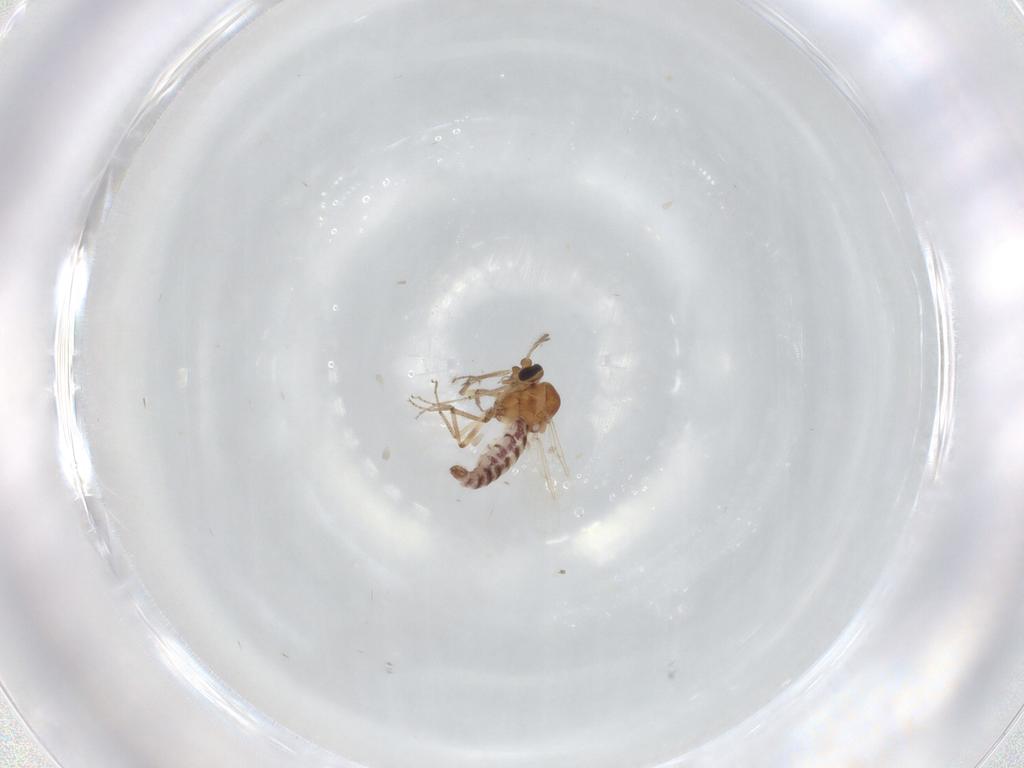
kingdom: Animalia
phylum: Arthropoda
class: Insecta
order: Diptera
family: Ceratopogonidae
